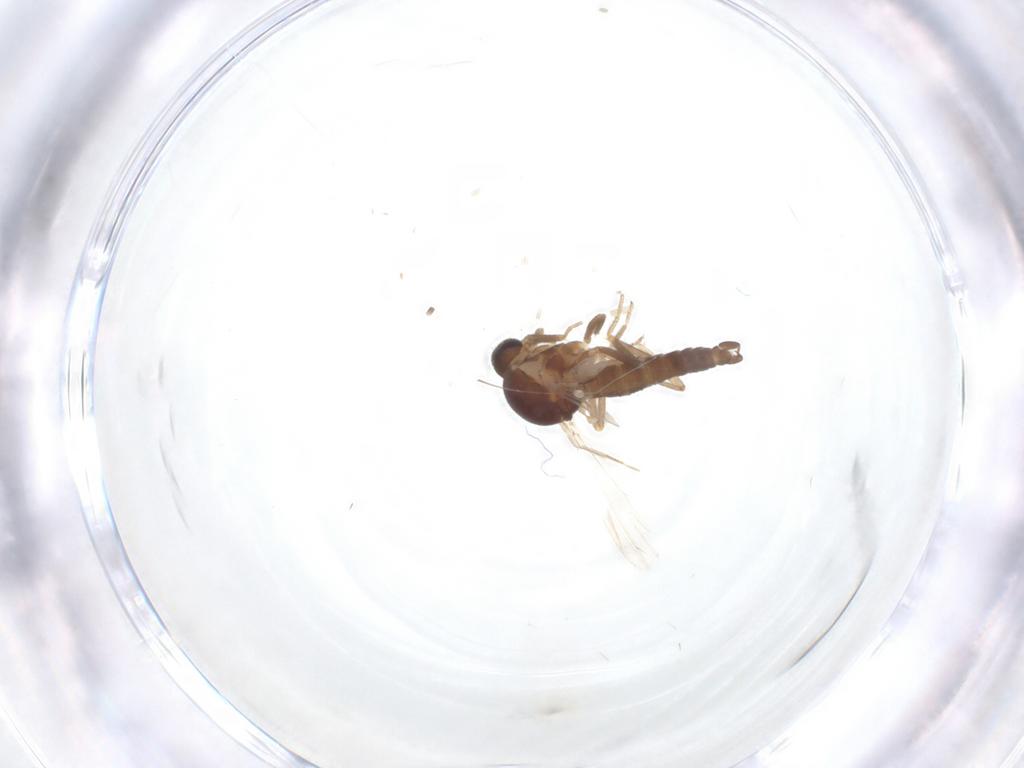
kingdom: Animalia
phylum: Arthropoda
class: Insecta
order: Diptera
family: Ceratopogonidae
